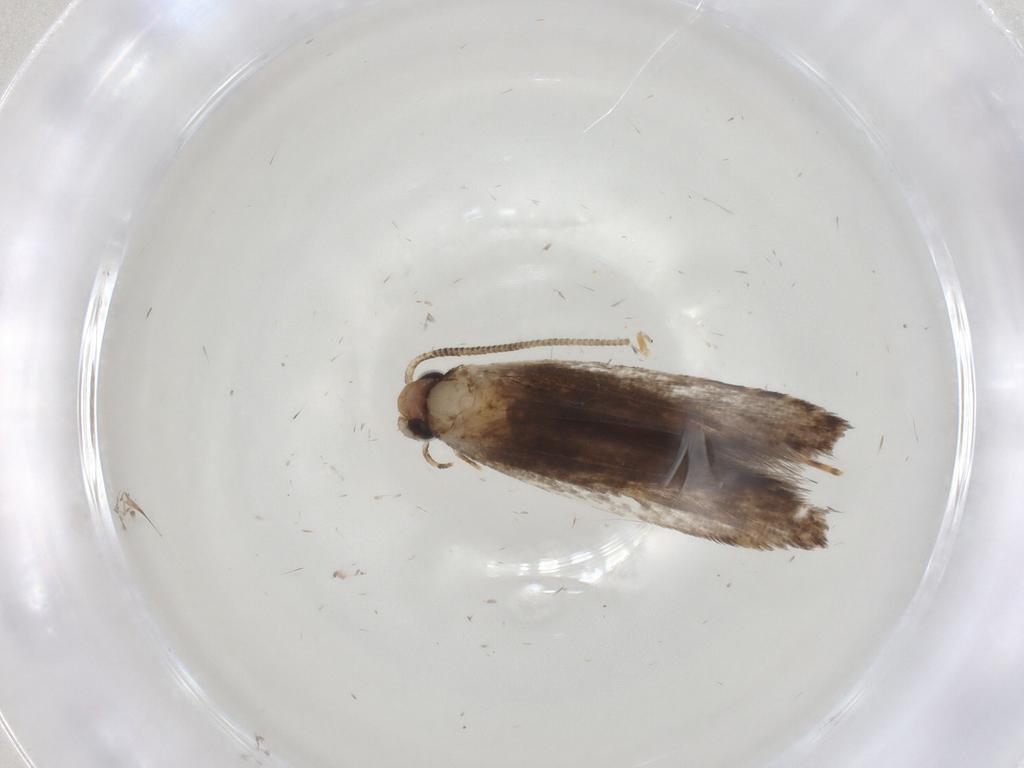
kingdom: Animalia
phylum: Arthropoda
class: Insecta
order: Lepidoptera
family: Tineidae
